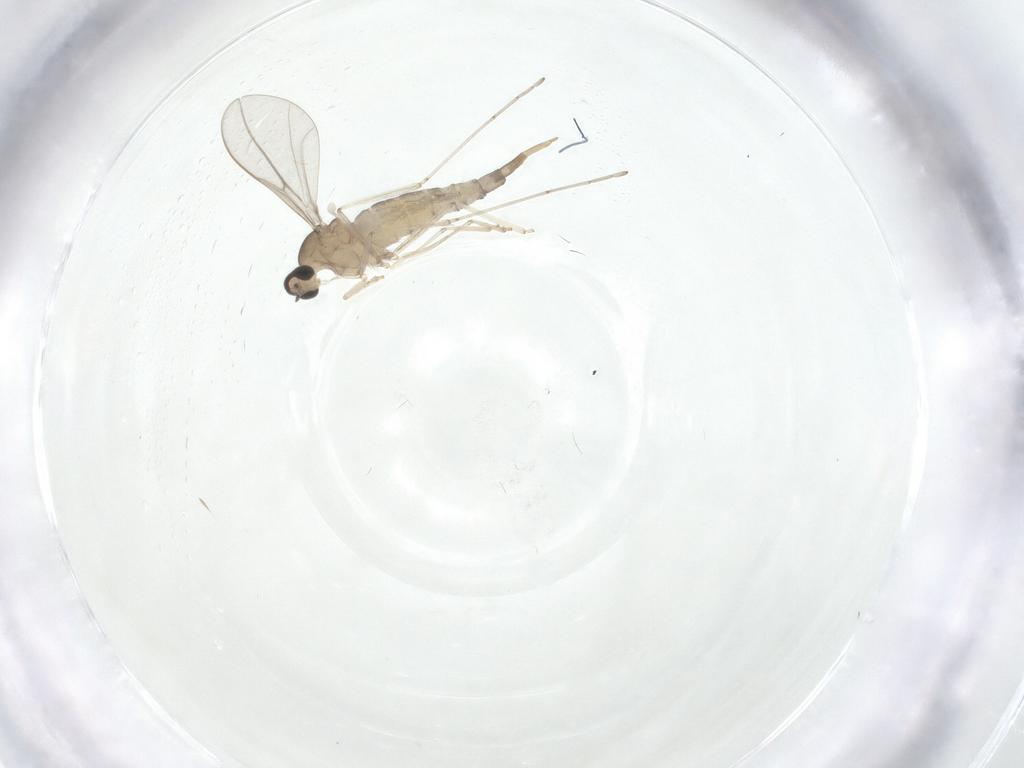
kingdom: Animalia
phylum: Arthropoda
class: Insecta
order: Diptera
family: Cecidomyiidae
